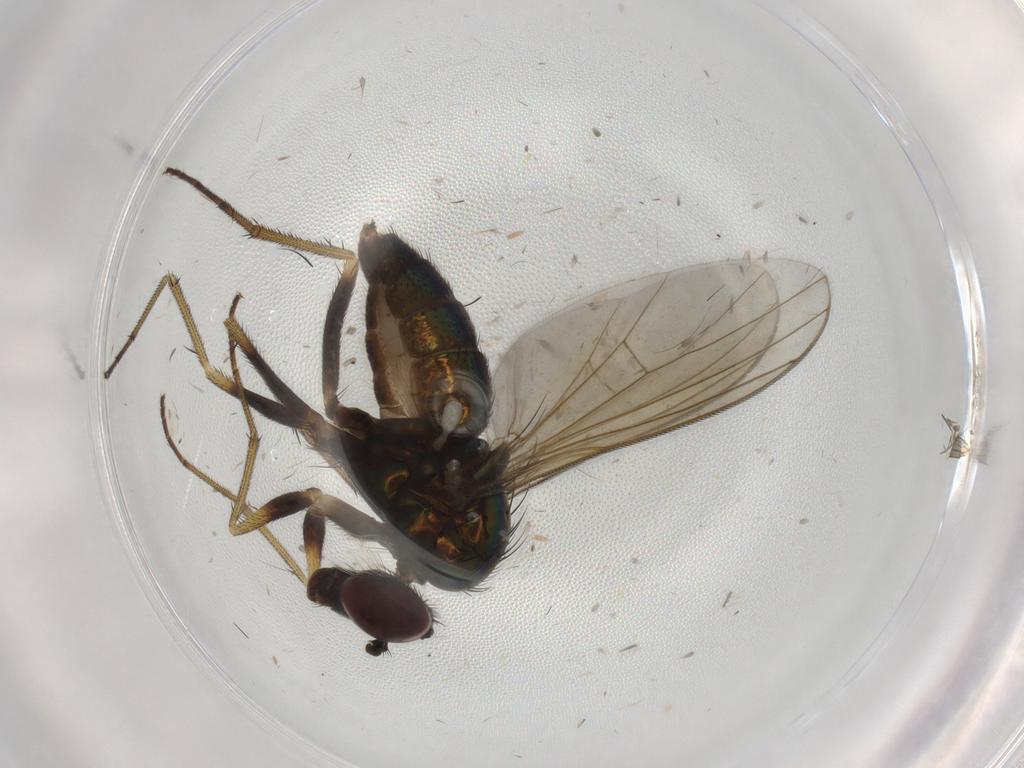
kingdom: Animalia
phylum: Arthropoda
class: Insecta
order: Diptera
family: Dolichopodidae
